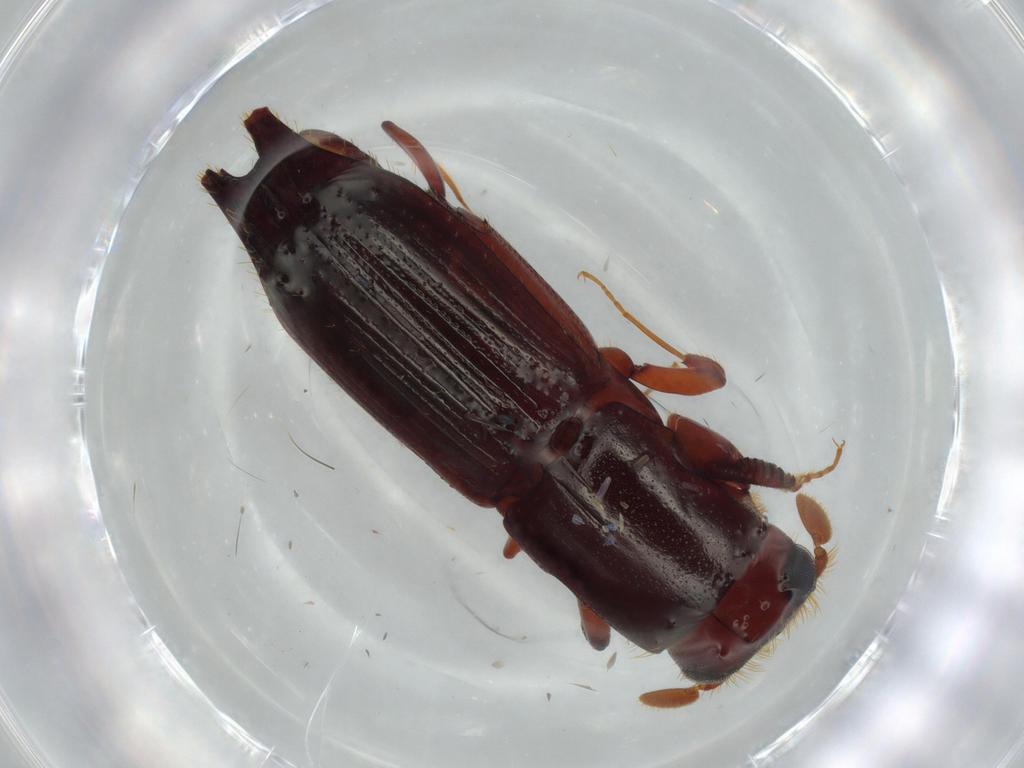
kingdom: Animalia
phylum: Arthropoda
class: Insecta
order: Coleoptera
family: Curculionidae
